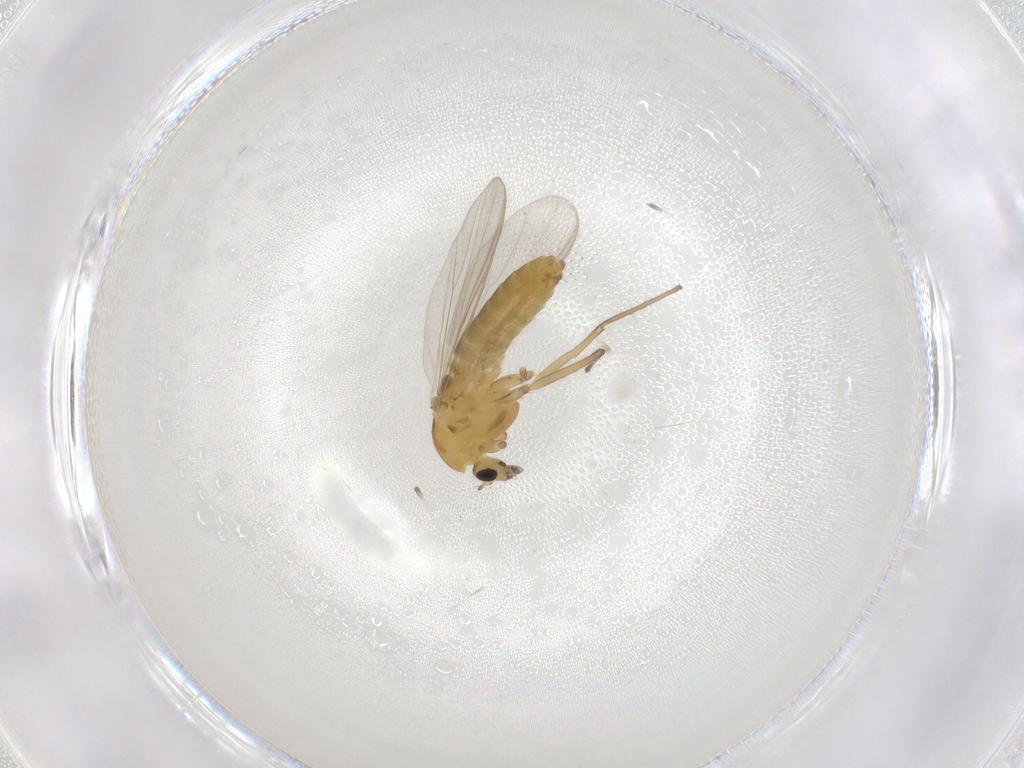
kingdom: Animalia
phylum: Arthropoda
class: Insecta
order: Diptera
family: Chironomidae
